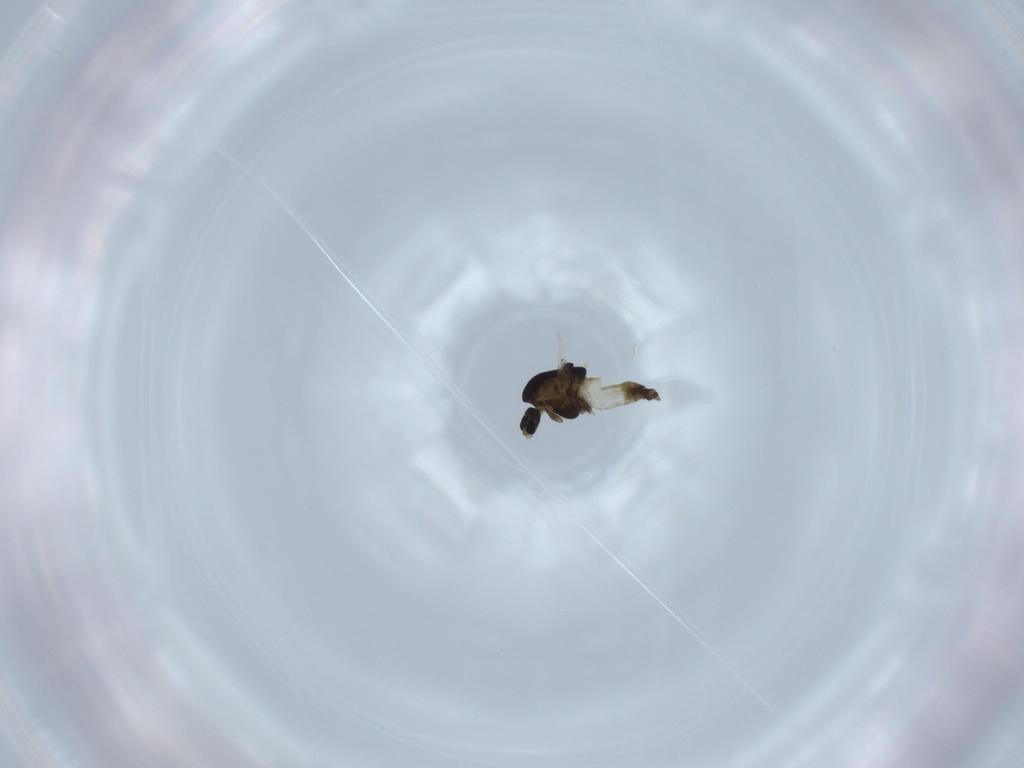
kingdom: Animalia
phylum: Arthropoda
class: Insecta
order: Diptera
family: Chironomidae
